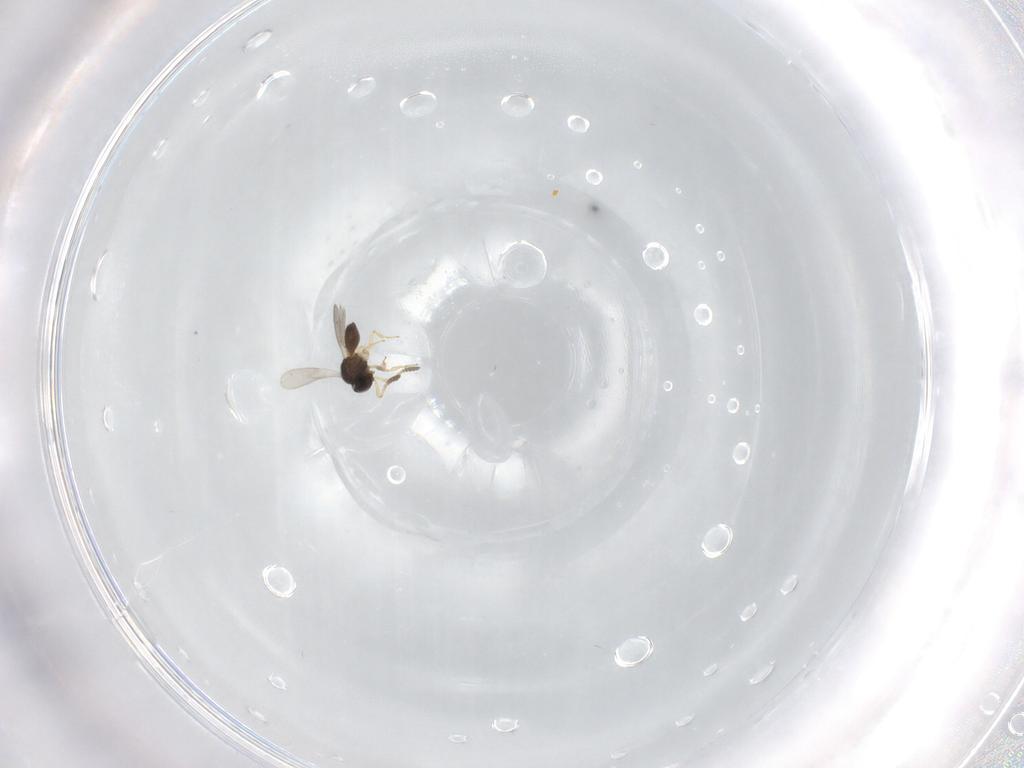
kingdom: Animalia
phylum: Arthropoda
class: Insecta
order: Hymenoptera
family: Scelionidae
